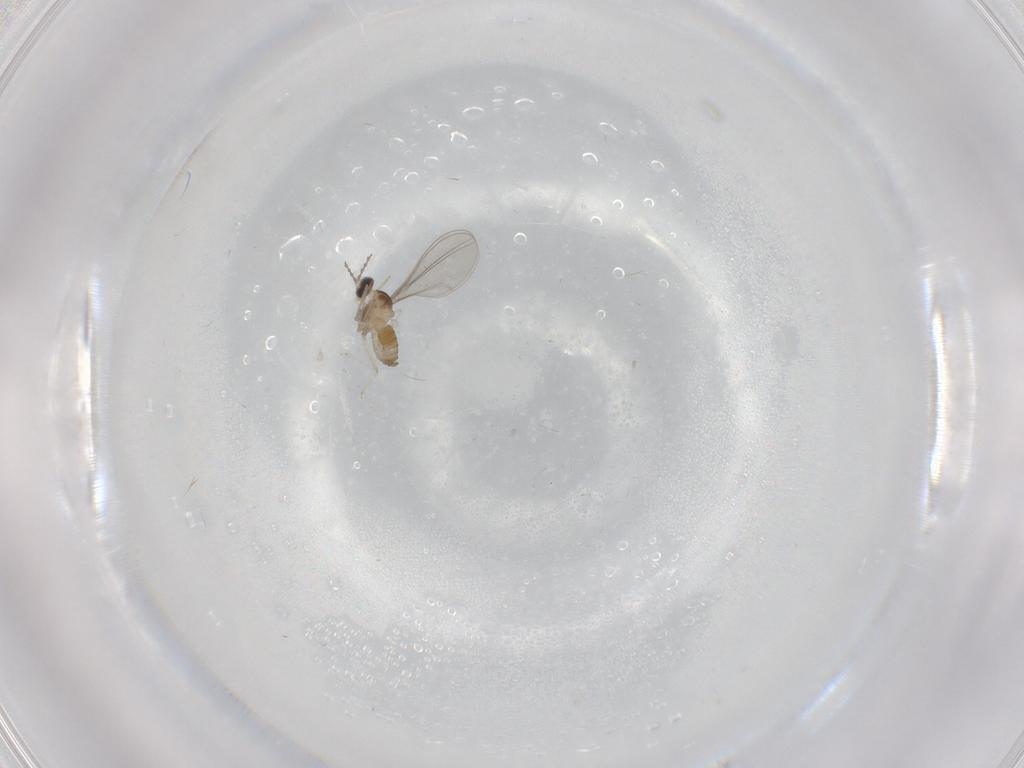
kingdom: Animalia
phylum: Arthropoda
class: Insecta
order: Diptera
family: Cecidomyiidae
